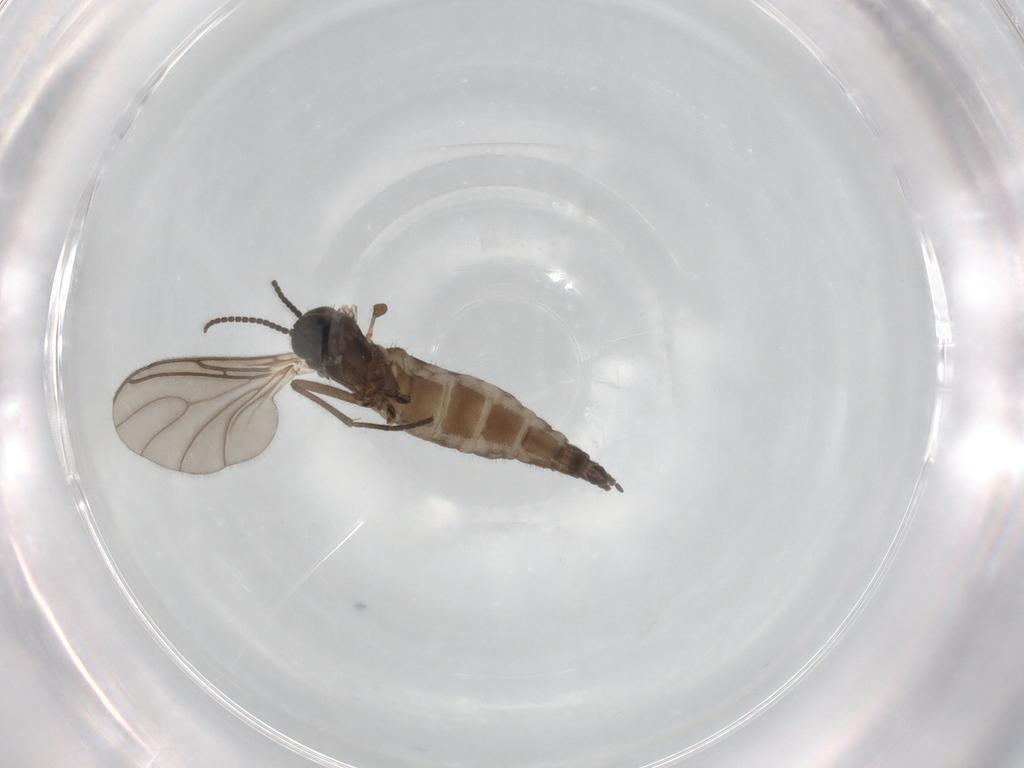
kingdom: Animalia
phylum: Arthropoda
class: Insecta
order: Diptera
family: Sciaridae
